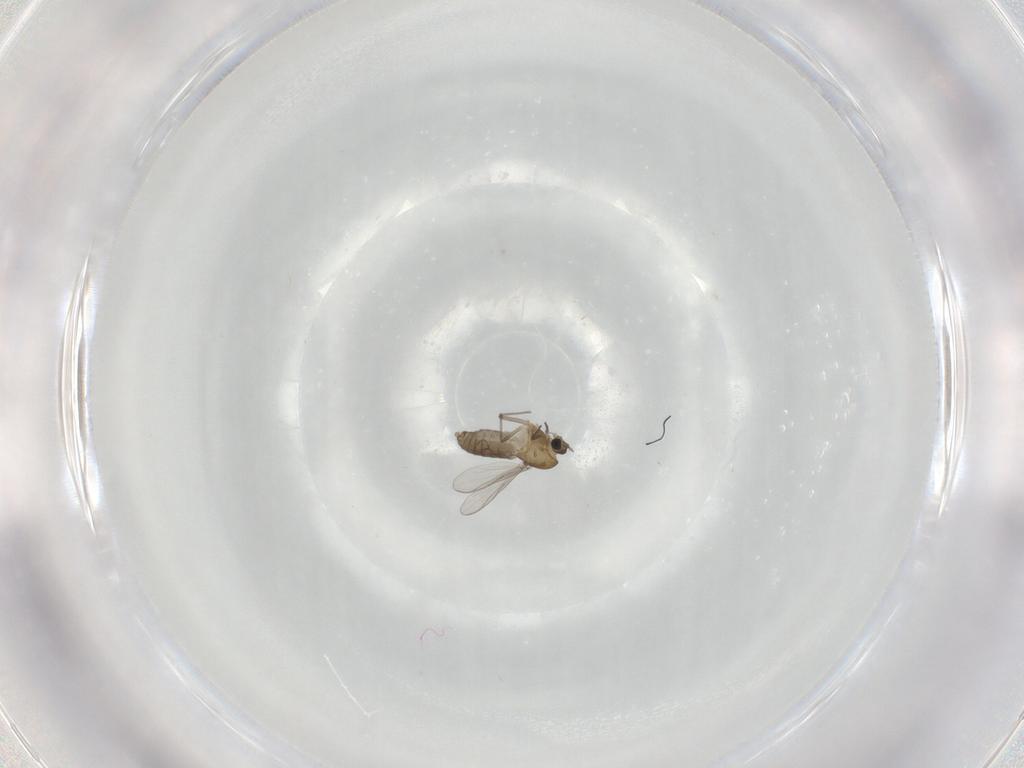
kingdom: Animalia
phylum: Arthropoda
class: Insecta
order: Diptera
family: Chironomidae
